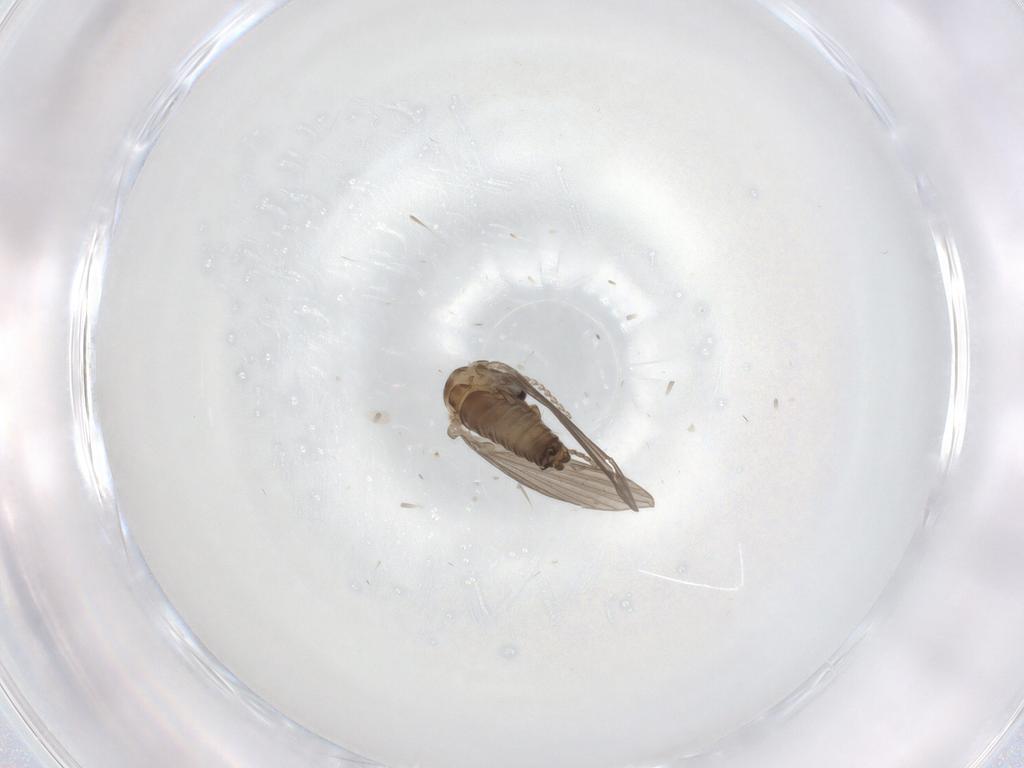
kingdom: Animalia
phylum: Arthropoda
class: Insecta
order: Diptera
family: Psychodidae
